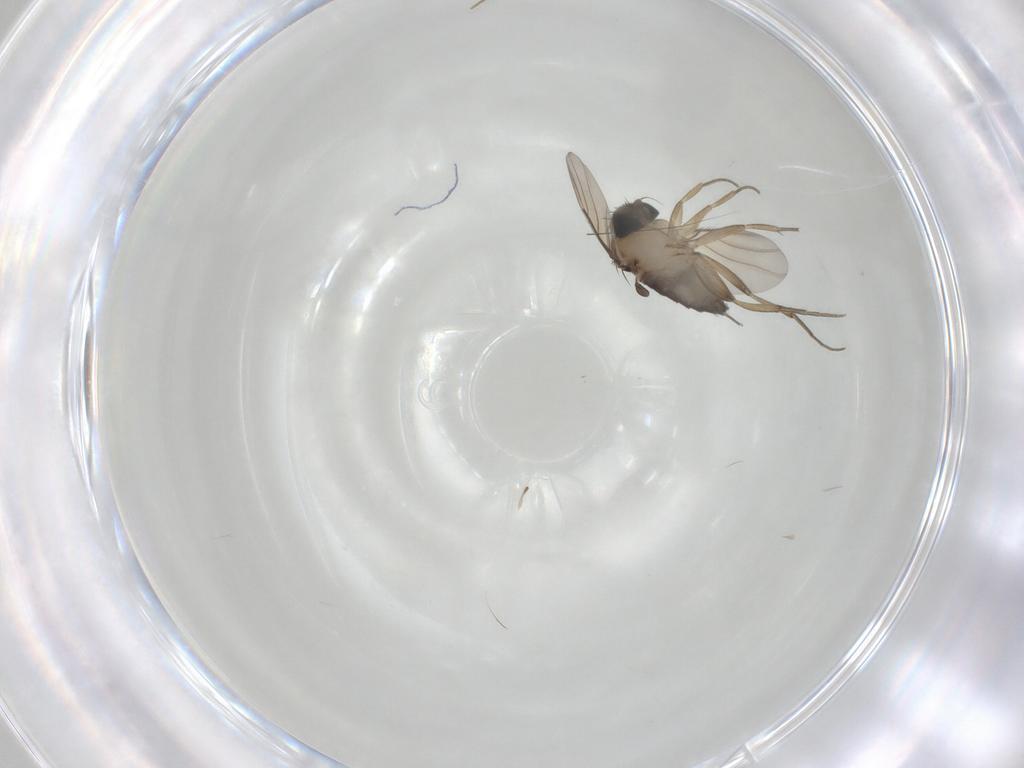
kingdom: Animalia
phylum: Arthropoda
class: Insecta
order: Diptera
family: Phoridae
